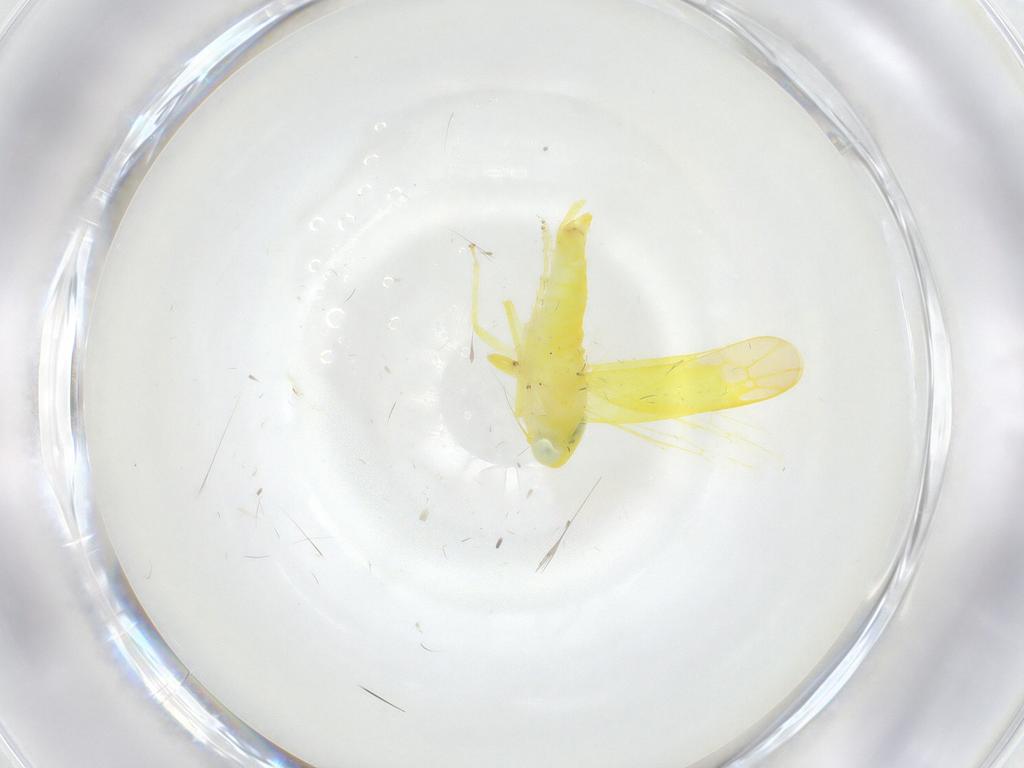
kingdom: Animalia
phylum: Arthropoda
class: Insecta
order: Hemiptera
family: Cicadellidae
